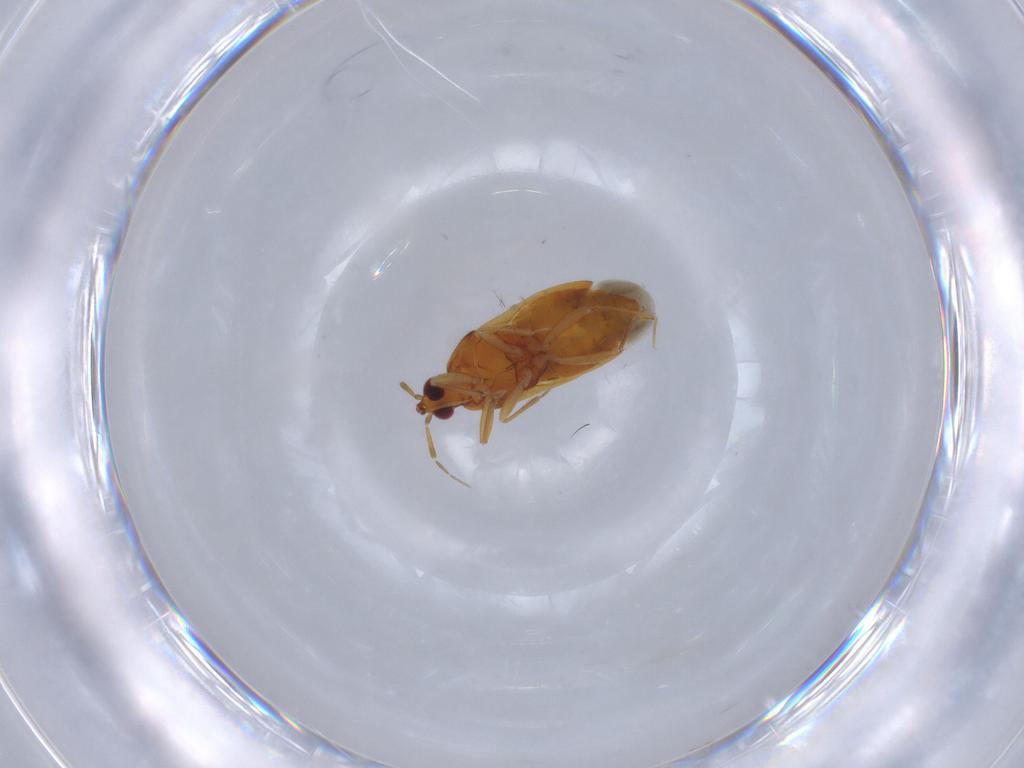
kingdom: Animalia
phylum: Arthropoda
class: Insecta
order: Hemiptera
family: Anthocoridae
